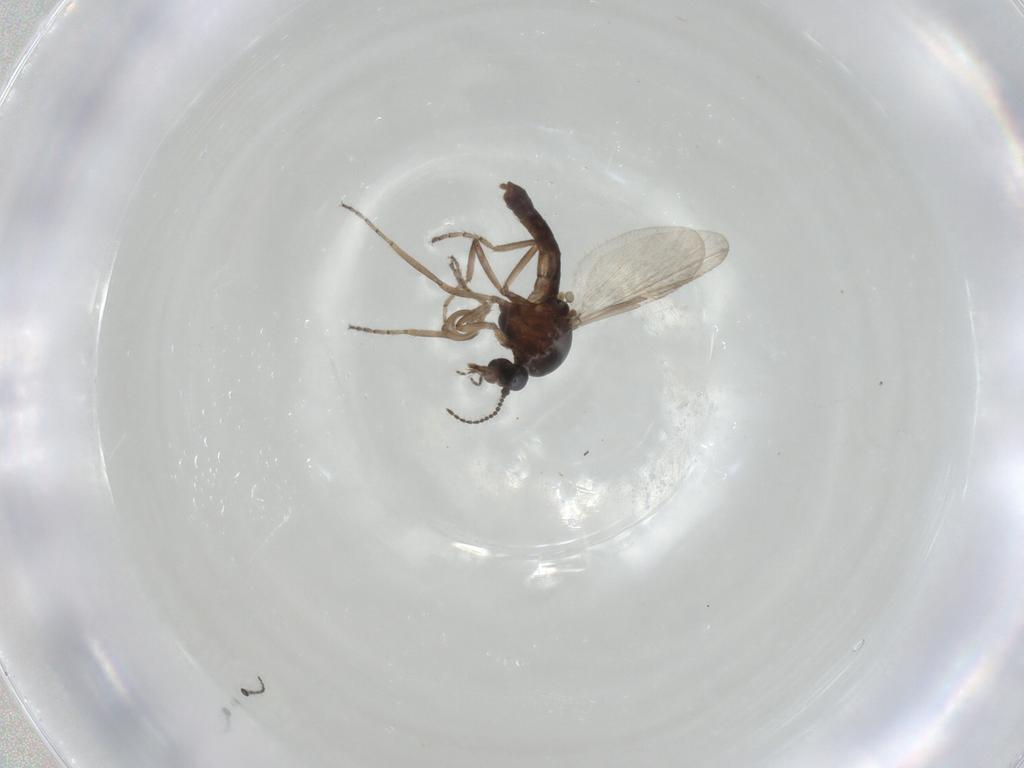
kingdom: Animalia
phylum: Arthropoda
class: Insecta
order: Diptera
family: Ceratopogonidae
